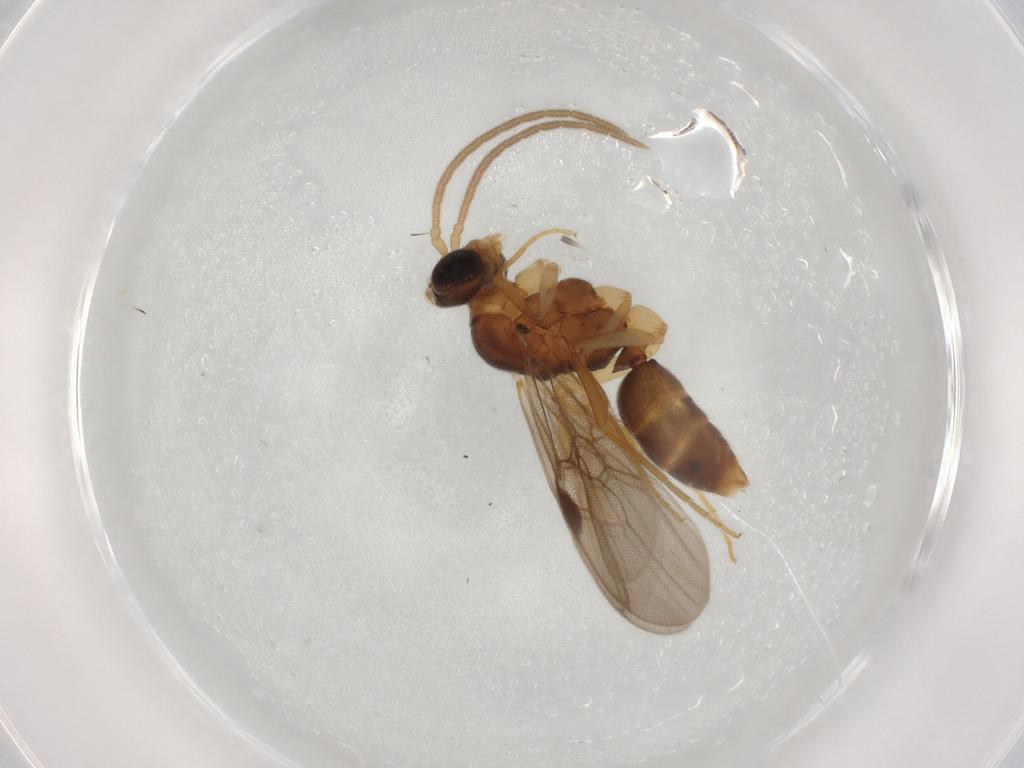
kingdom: Animalia
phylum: Arthropoda
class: Insecta
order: Hymenoptera
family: Formicidae
